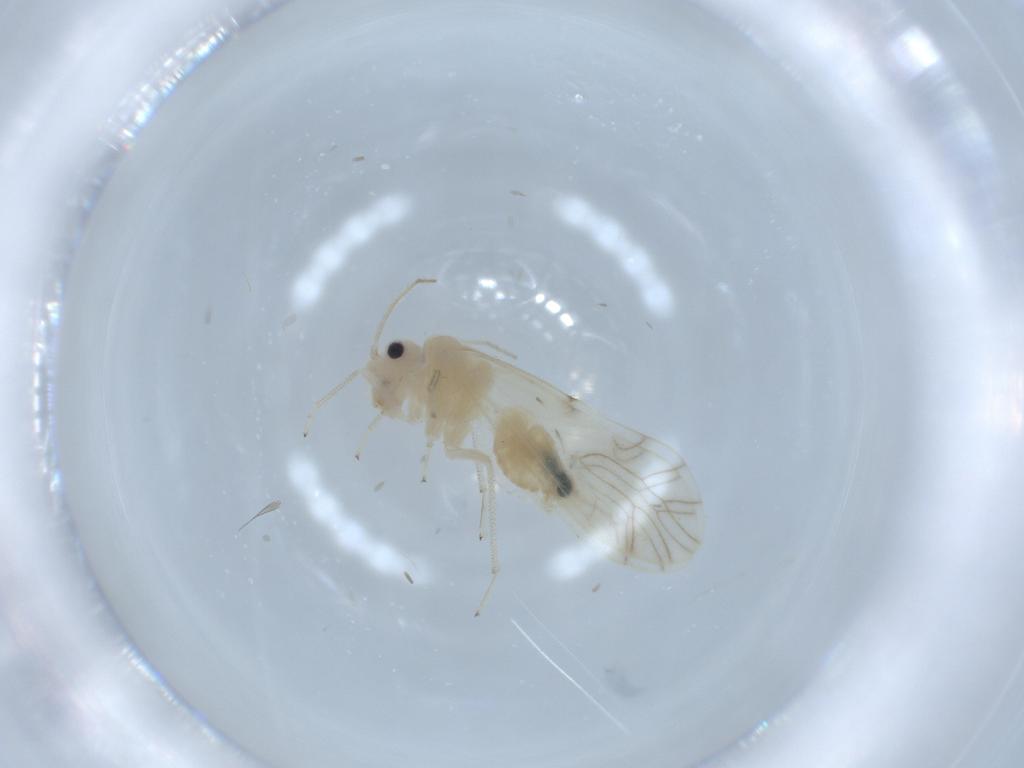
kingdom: Animalia
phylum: Arthropoda
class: Insecta
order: Psocodea
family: Caeciliusidae
